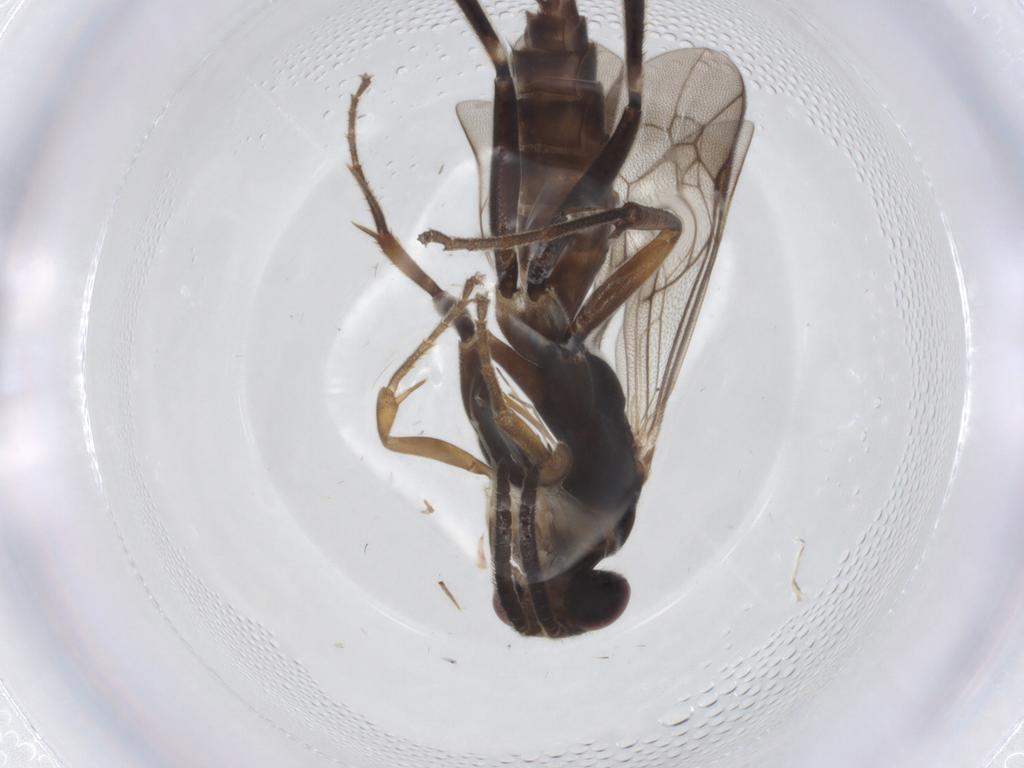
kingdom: Animalia
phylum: Arthropoda
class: Insecta
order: Hymenoptera
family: Pompilidae
